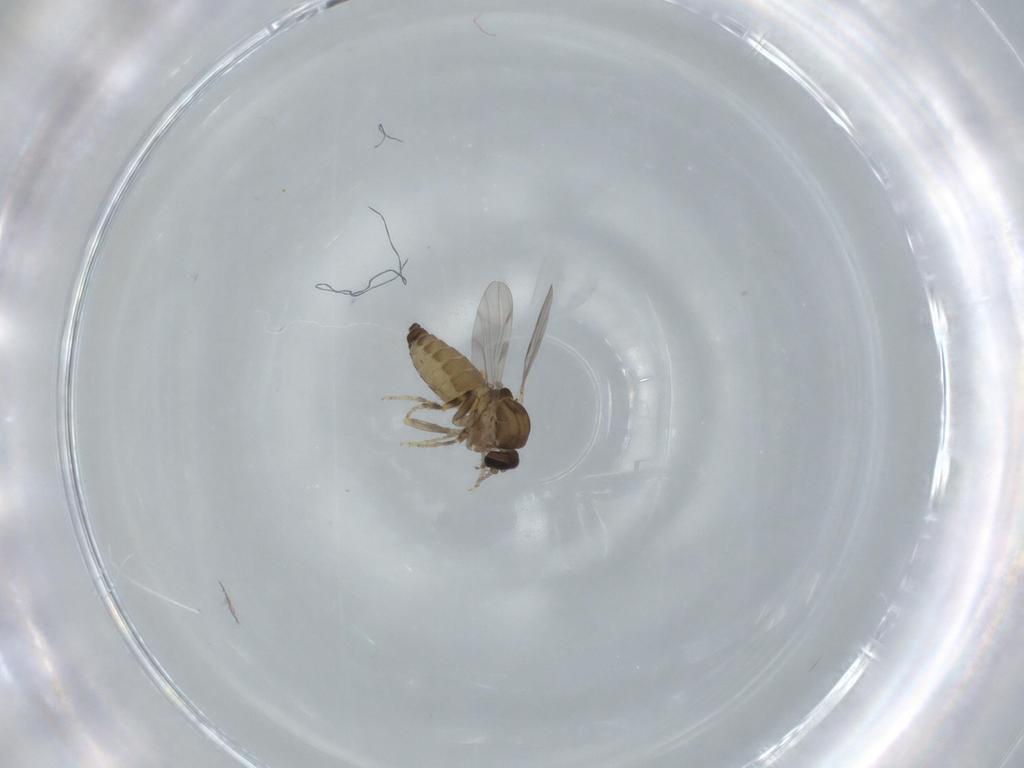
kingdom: Animalia
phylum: Arthropoda
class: Insecta
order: Diptera
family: Ceratopogonidae
